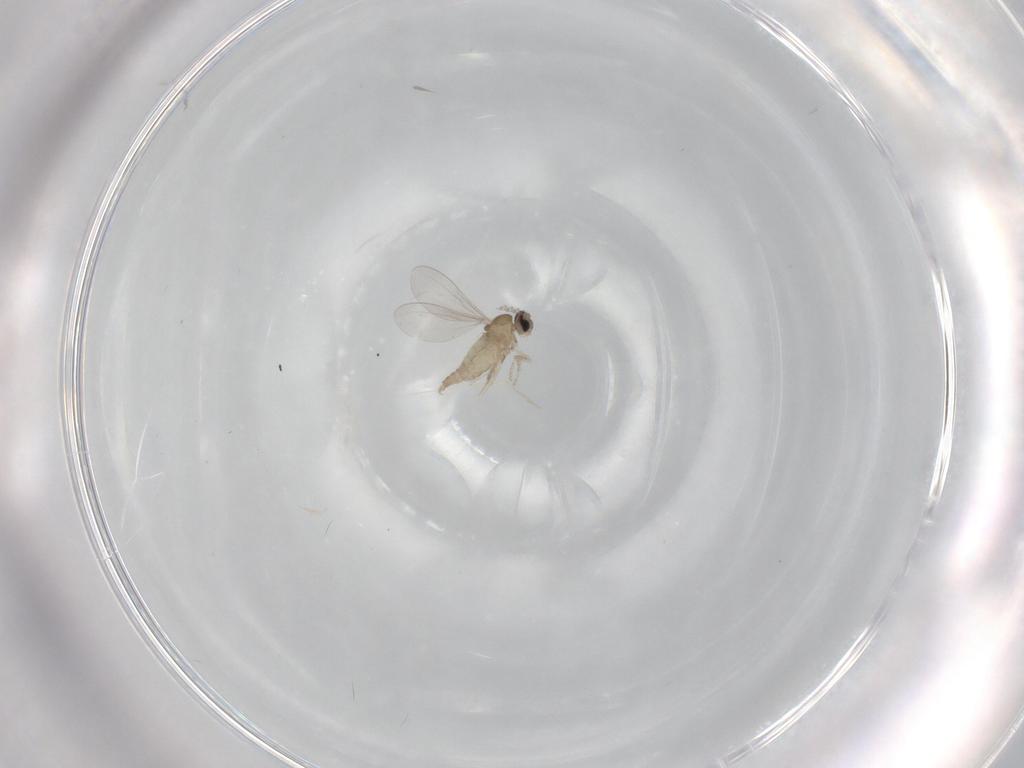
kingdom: Animalia
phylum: Arthropoda
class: Insecta
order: Diptera
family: Cecidomyiidae
